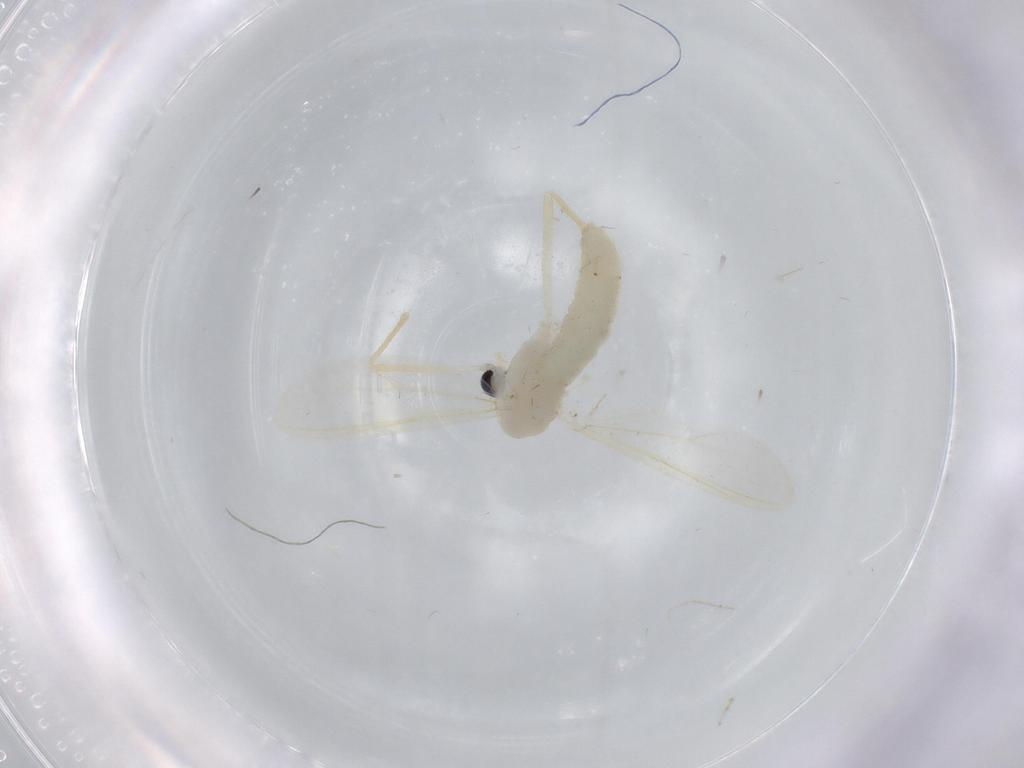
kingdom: Animalia
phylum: Arthropoda
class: Insecta
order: Diptera
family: Chironomidae
